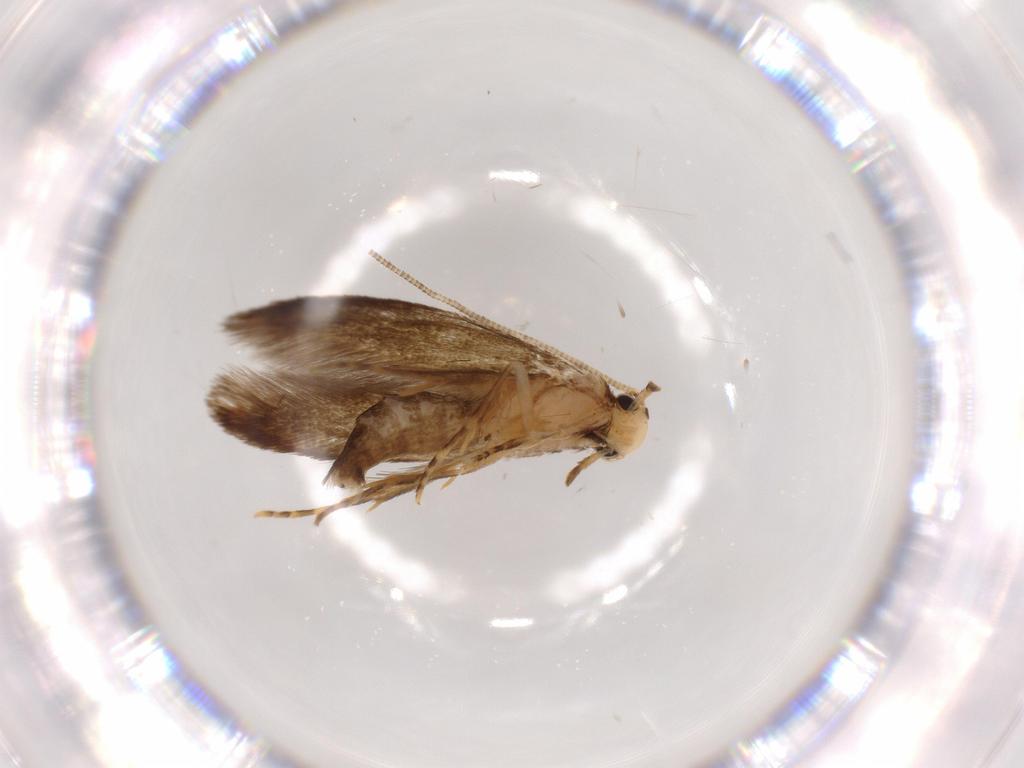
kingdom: Animalia
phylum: Arthropoda
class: Insecta
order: Lepidoptera
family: Tineidae
